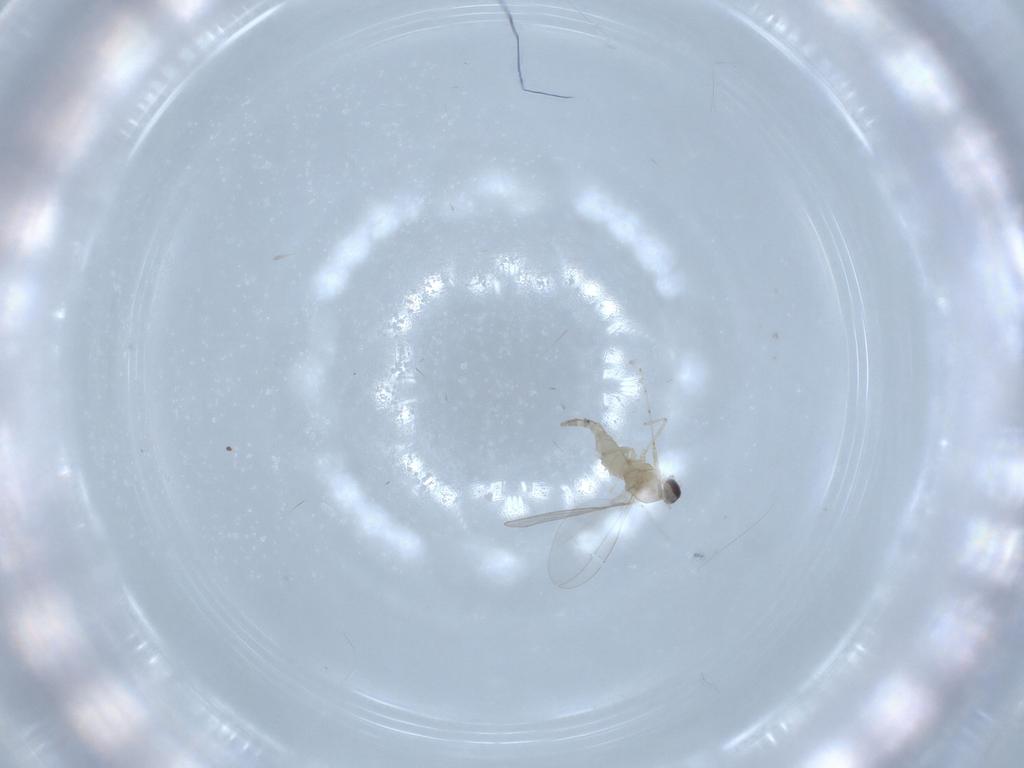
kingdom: Animalia
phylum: Arthropoda
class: Insecta
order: Diptera
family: Cecidomyiidae
